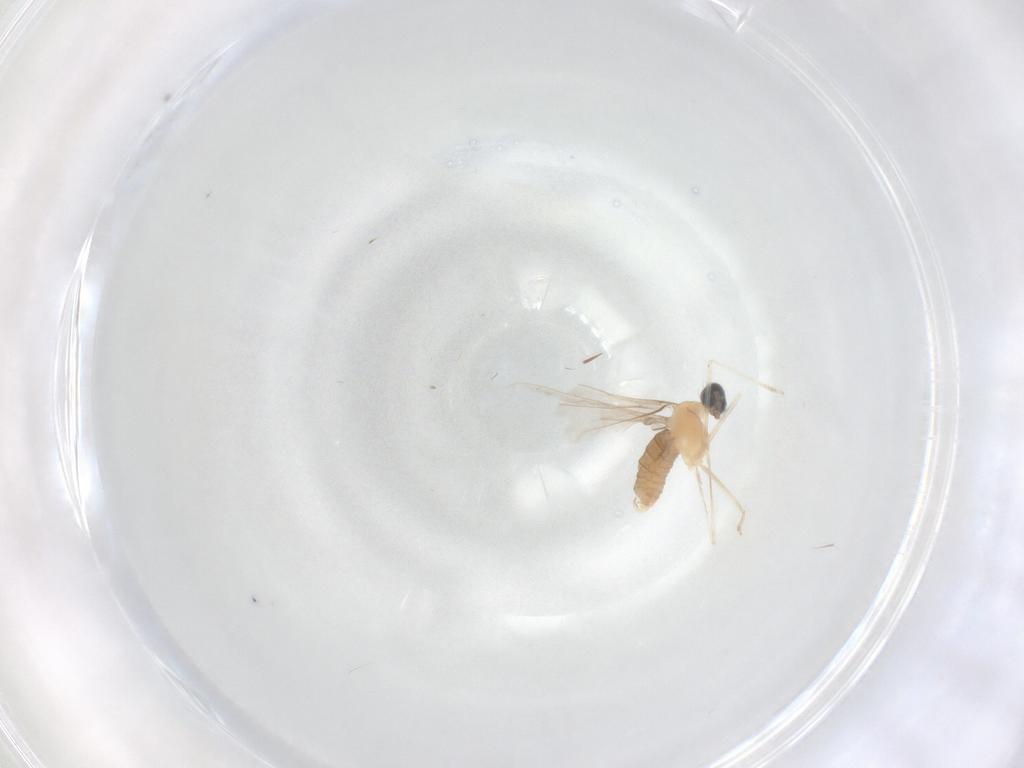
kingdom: Animalia
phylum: Arthropoda
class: Insecta
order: Diptera
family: Cecidomyiidae
